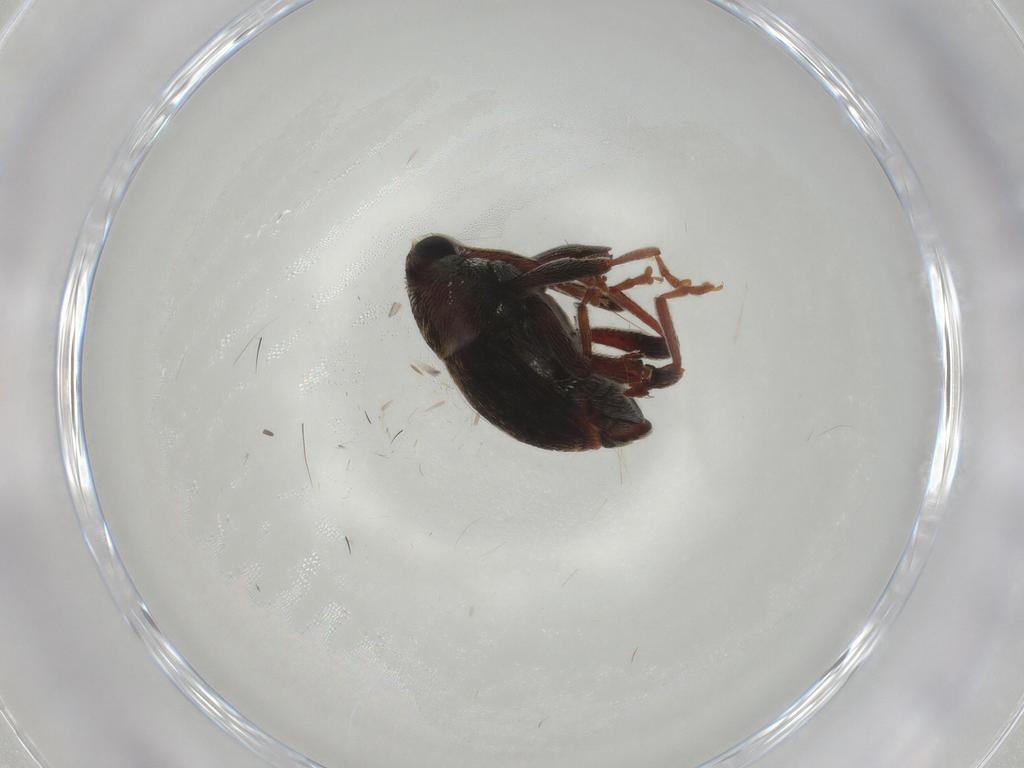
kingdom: Animalia
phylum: Arthropoda
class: Insecta
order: Coleoptera
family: Curculionidae
